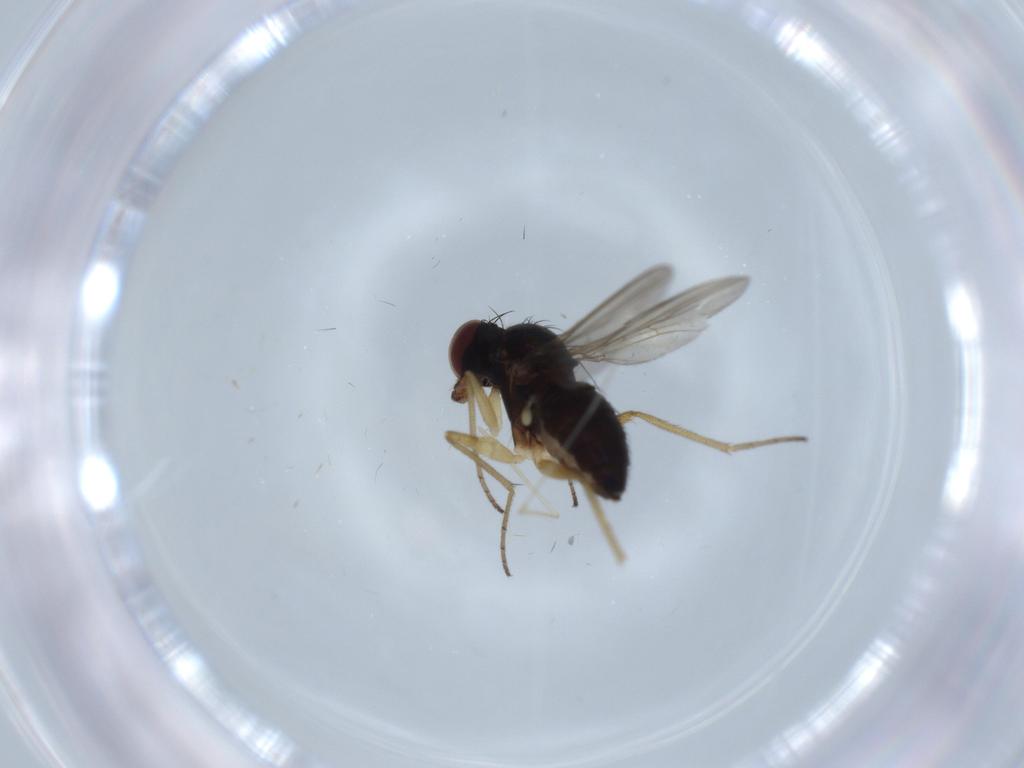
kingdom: Animalia
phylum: Arthropoda
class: Insecta
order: Diptera
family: Dolichopodidae
